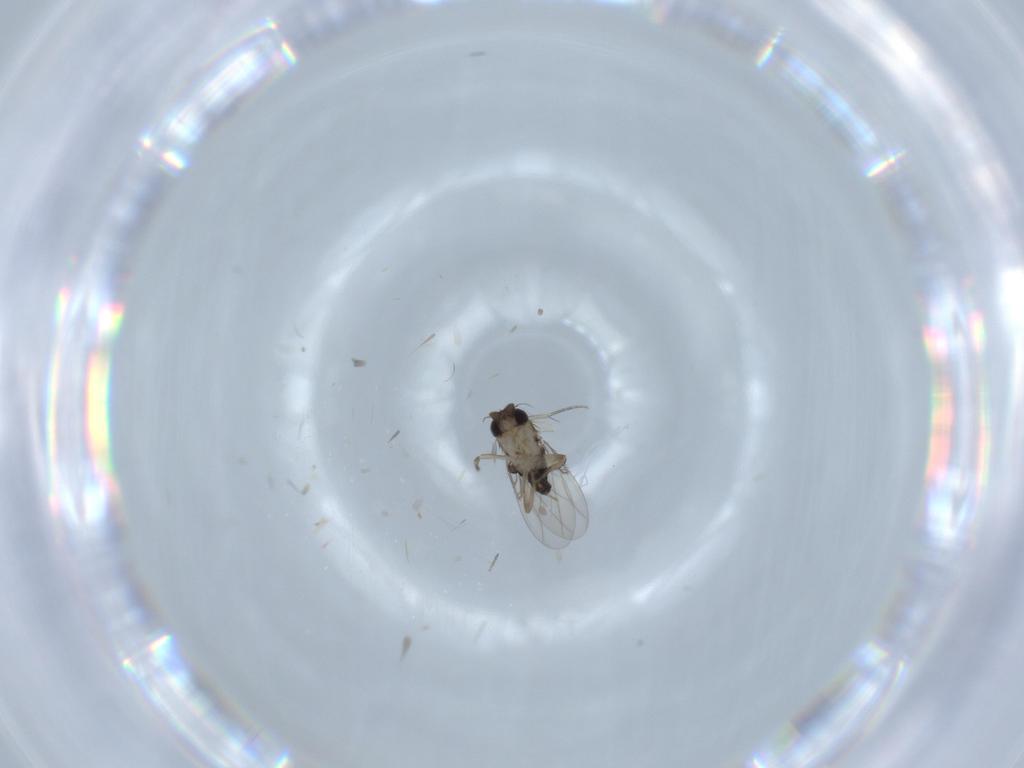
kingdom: Animalia
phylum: Arthropoda
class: Insecta
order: Diptera
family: Phoridae
